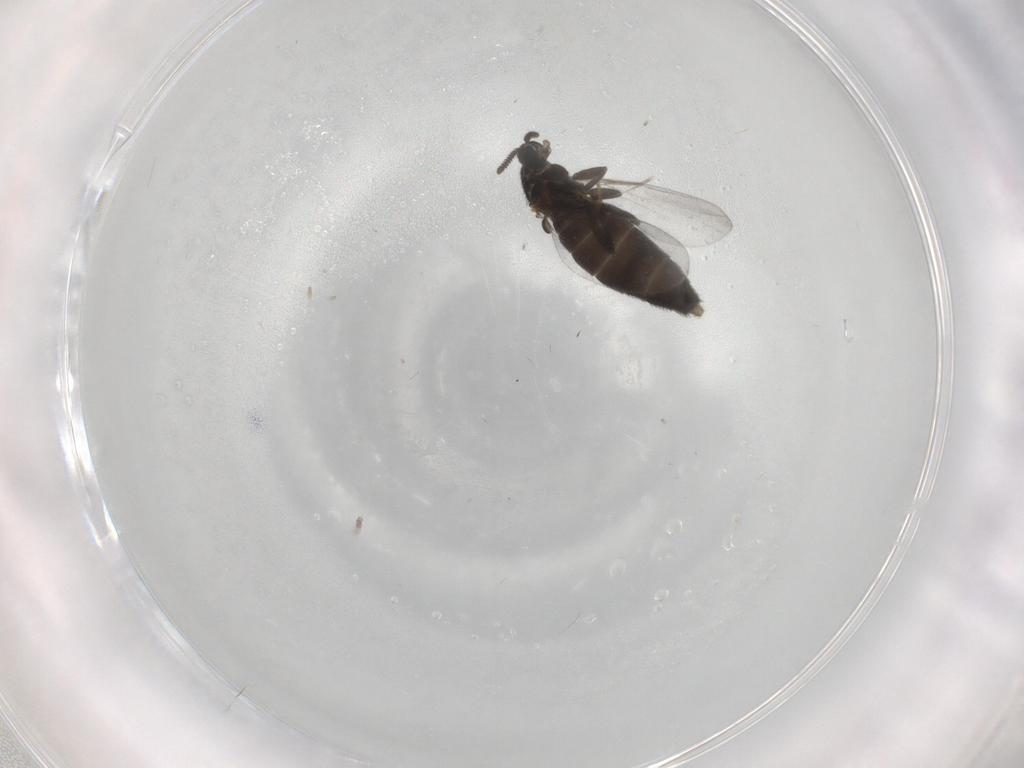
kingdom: Animalia
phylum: Arthropoda
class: Insecta
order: Diptera
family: Scatopsidae
